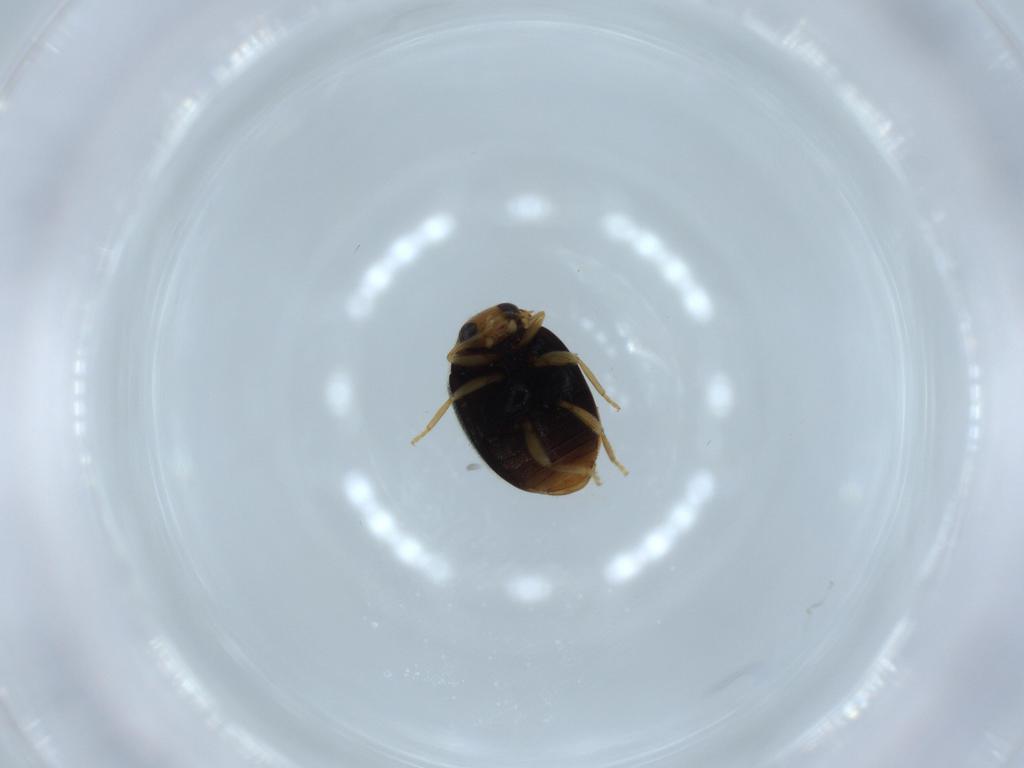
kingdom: Animalia
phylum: Arthropoda
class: Insecta
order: Coleoptera
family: Coccinellidae
